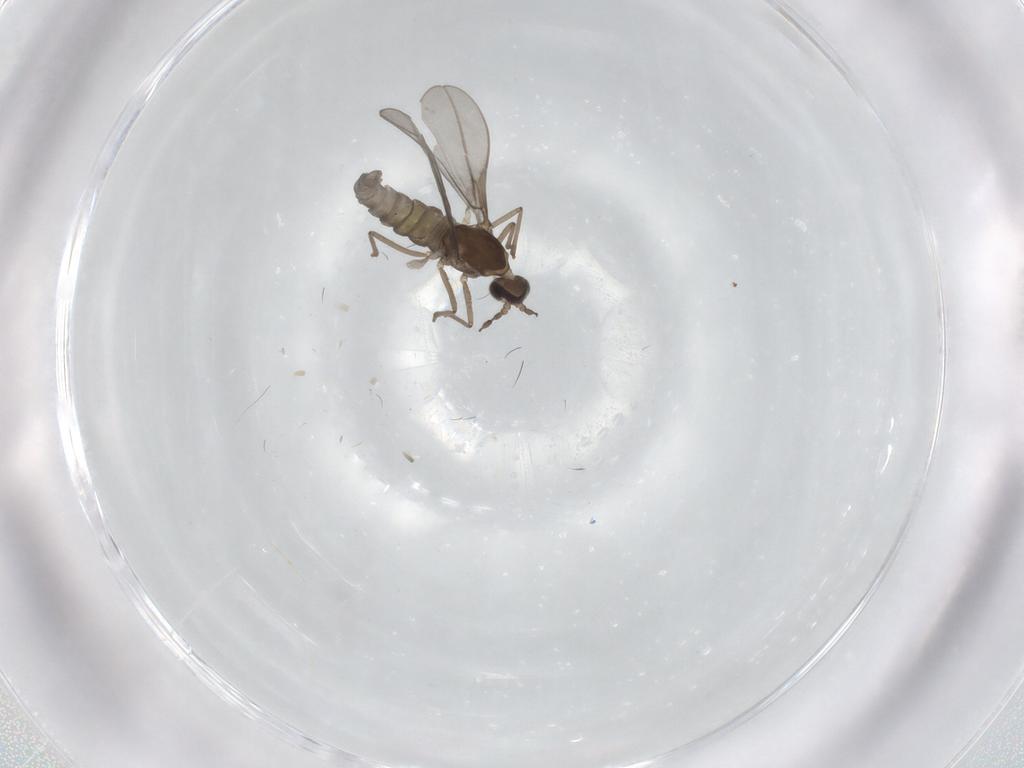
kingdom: Animalia
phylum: Arthropoda
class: Insecta
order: Diptera
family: Cecidomyiidae
